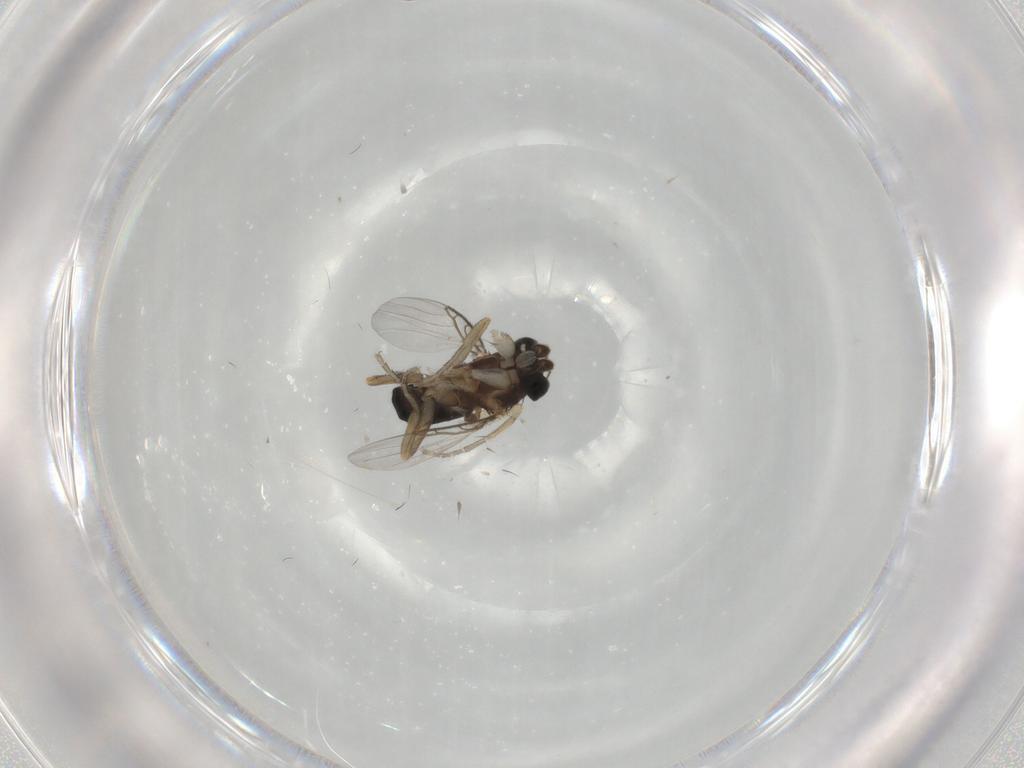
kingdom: Animalia
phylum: Arthropoda
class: Insecta
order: Diptera
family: Phoridae
